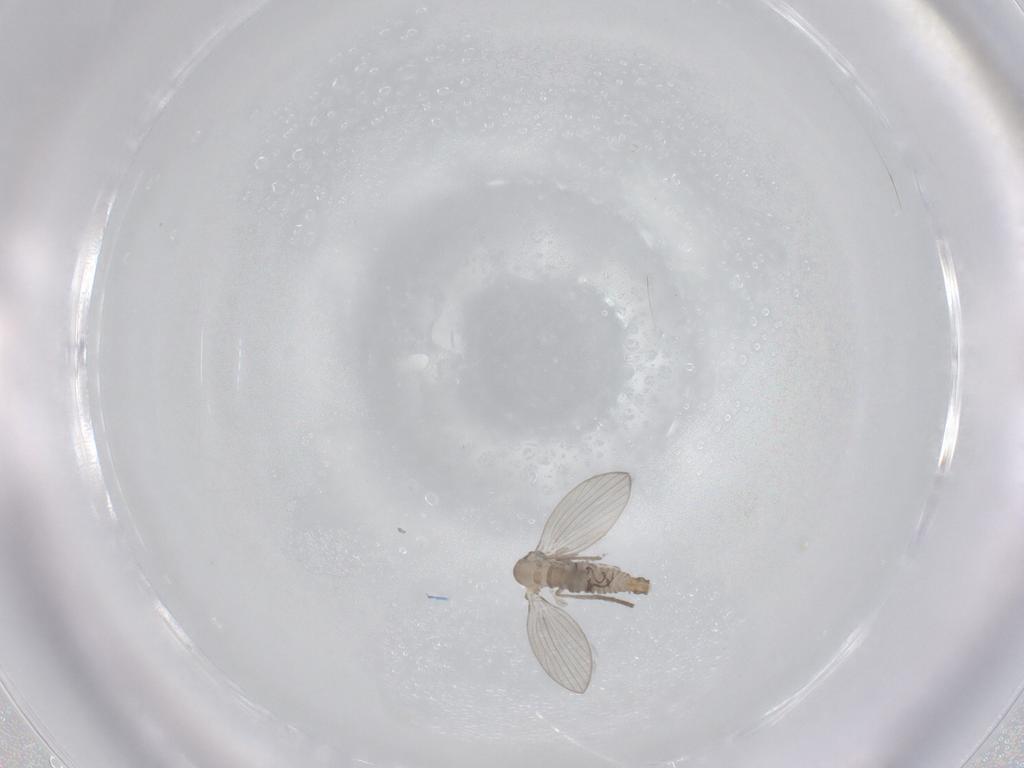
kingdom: Animalia
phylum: Arthropoda
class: Insecta
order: Diptera
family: Psychodidae
